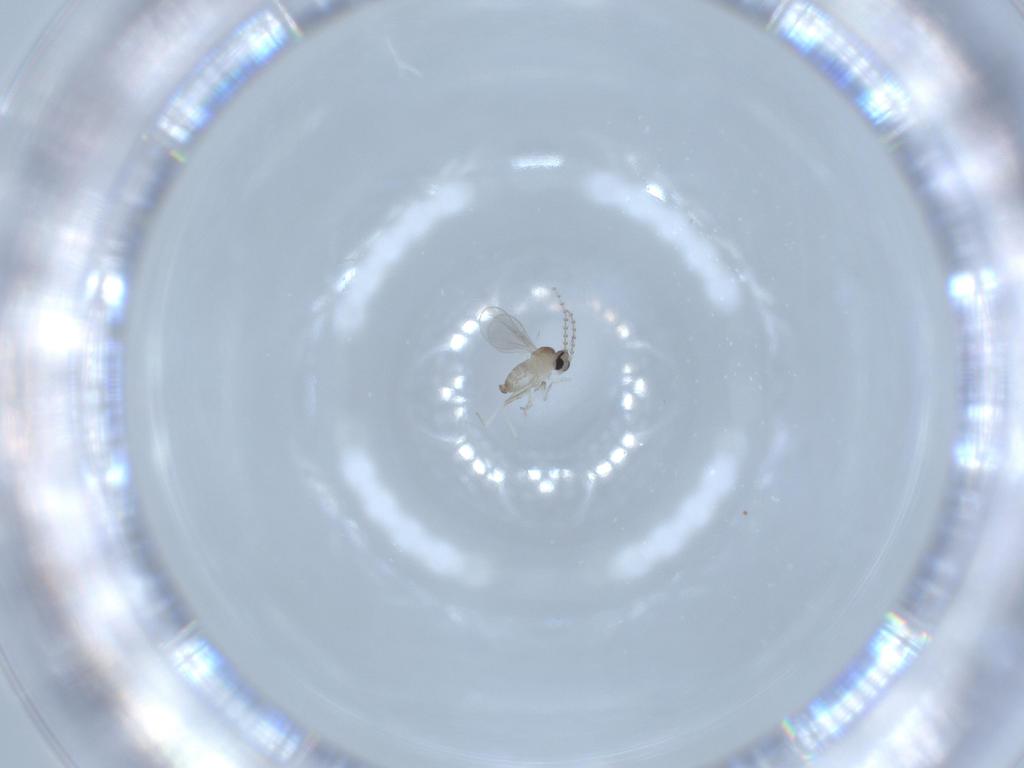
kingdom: Animalia
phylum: Arthropoda
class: Insecta
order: Diptera
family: Cecidomyiidae
